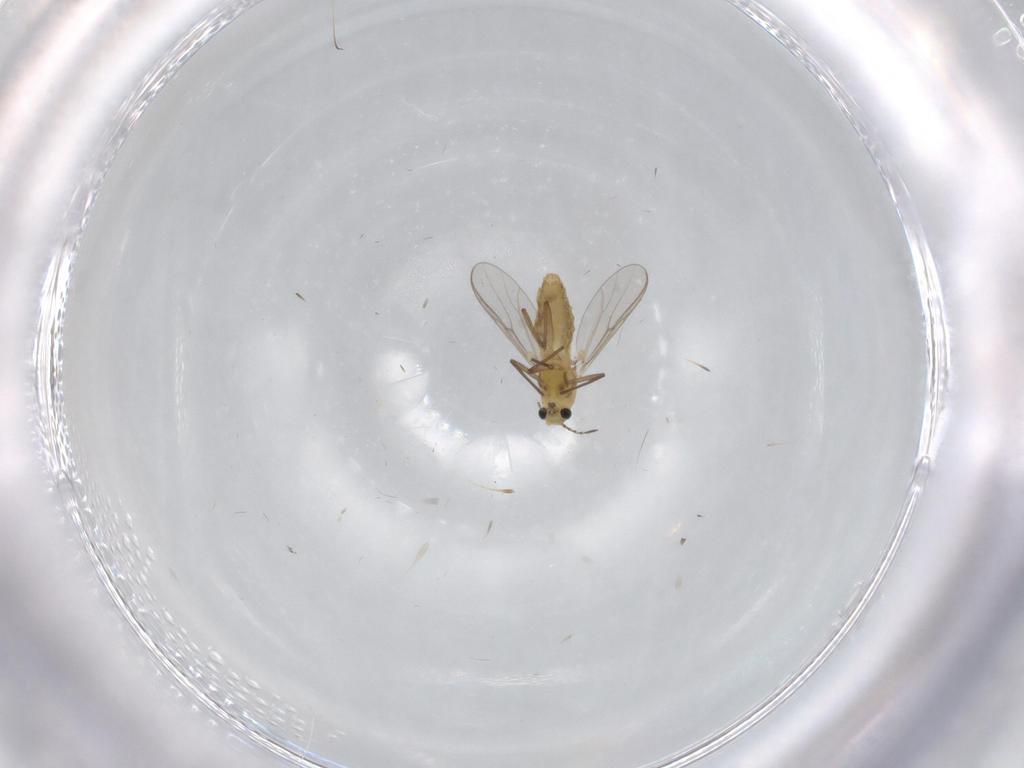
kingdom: Animalia
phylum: Arthropoda
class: Insecta
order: Diptera
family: Chironomidae
